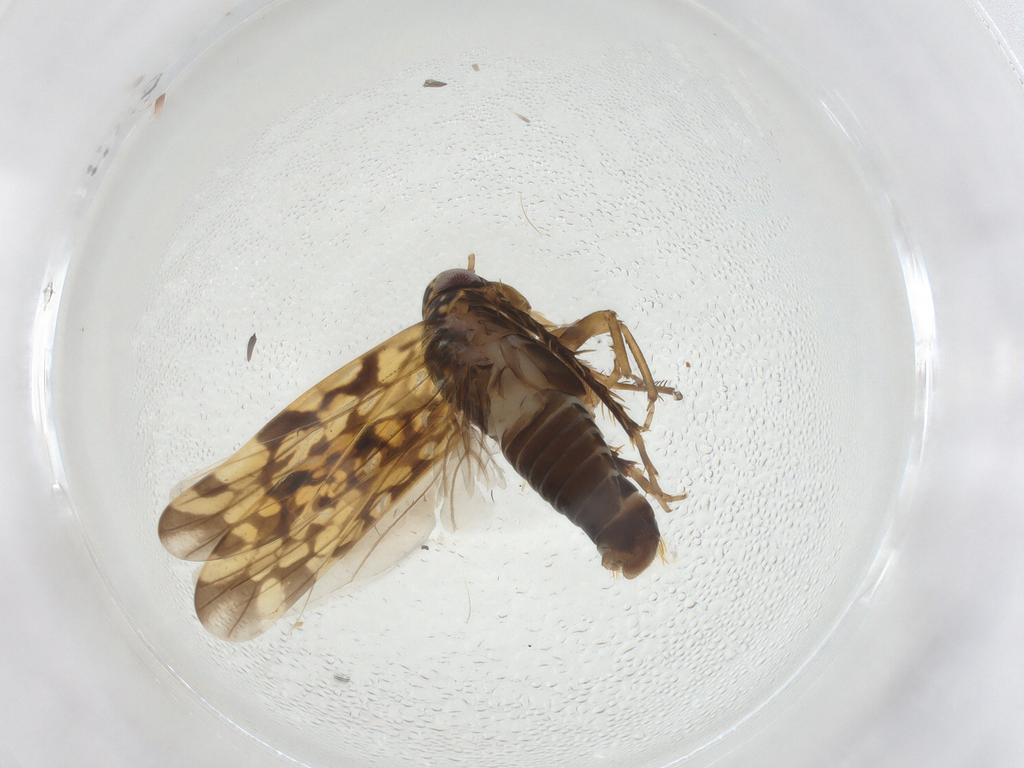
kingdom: Animalia
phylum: Arthropoda
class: Insecta
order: Hemiptera
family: Cicadellidae
